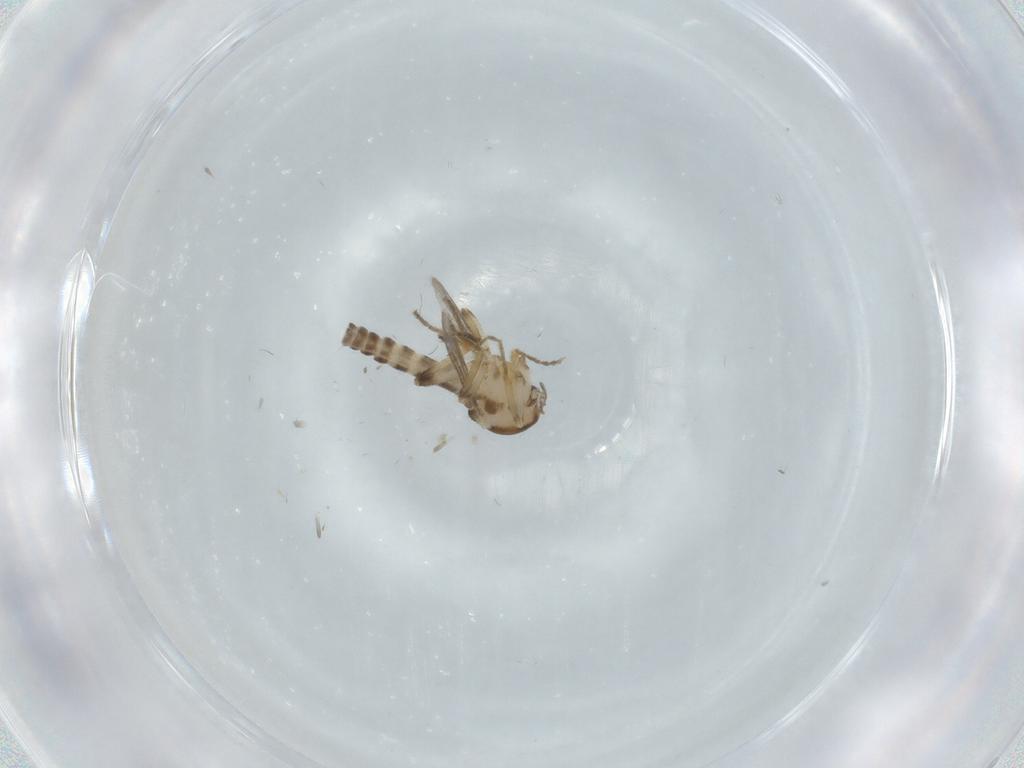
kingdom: Animalia
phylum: Arthropoda
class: Insecta
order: Diptera
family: Ceratopogonidae
